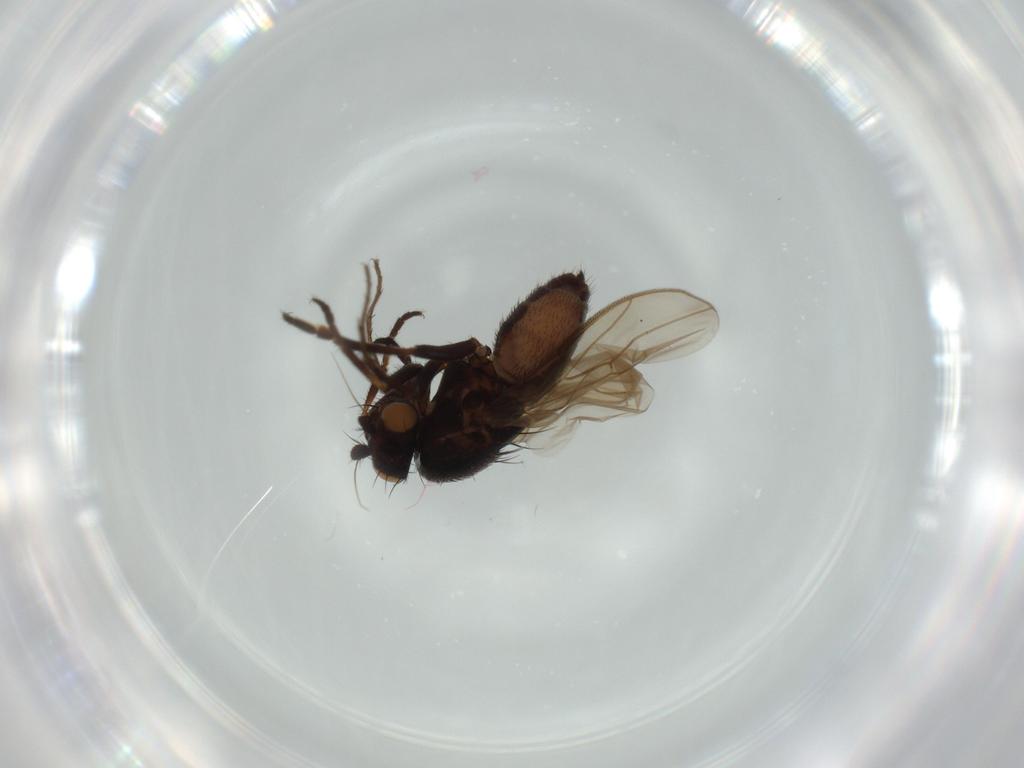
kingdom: Animalia
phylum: Arthropoda
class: Insecta
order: Diptera
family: Sphaeroceridae
